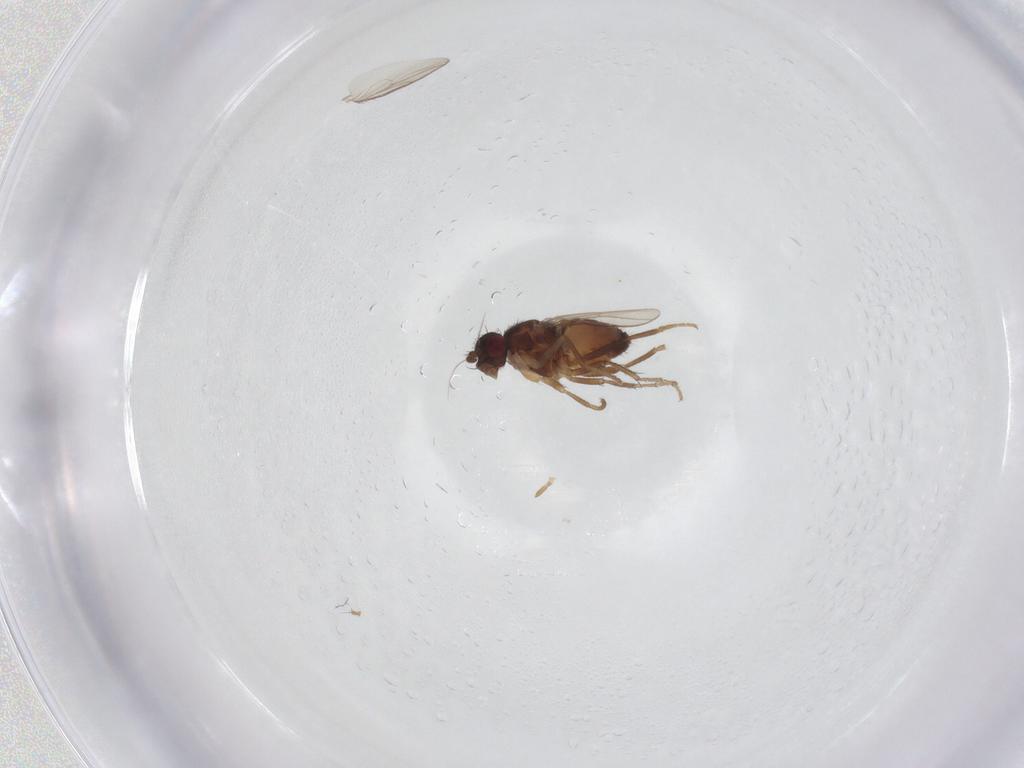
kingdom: Animalia
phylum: Arthropoda
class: Insecta
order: Diptera
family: Sphaeroceridae
